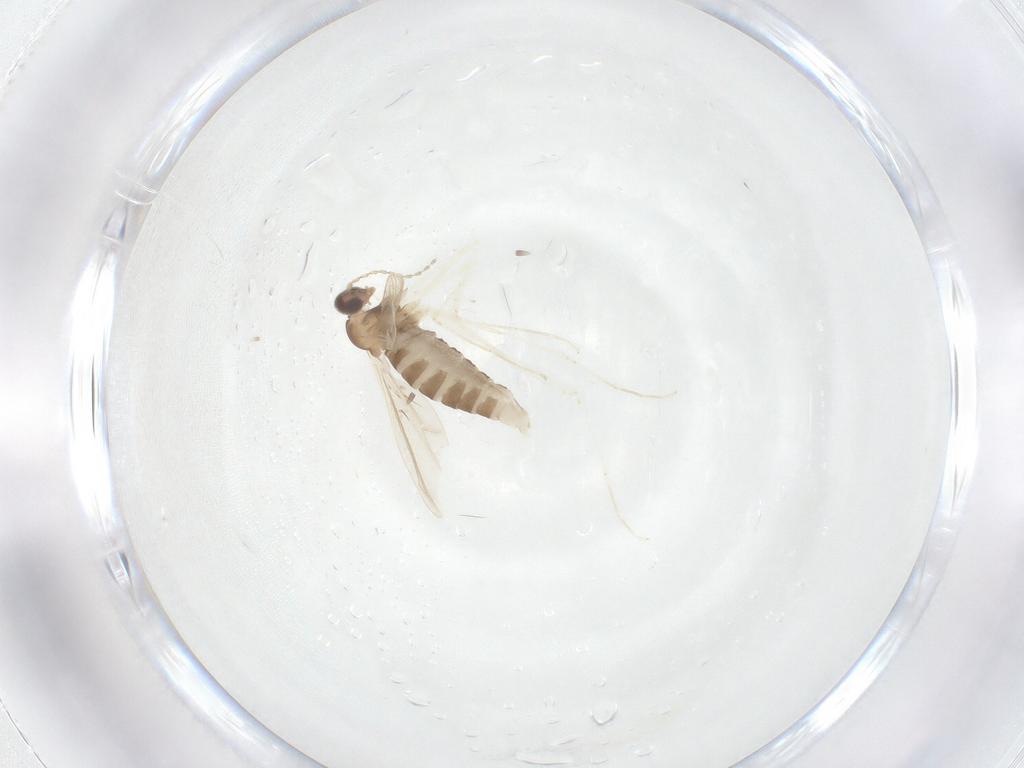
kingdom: Animalia
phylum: Arthropoda
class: Insecta
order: Diptera
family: Cecidomyiidae
